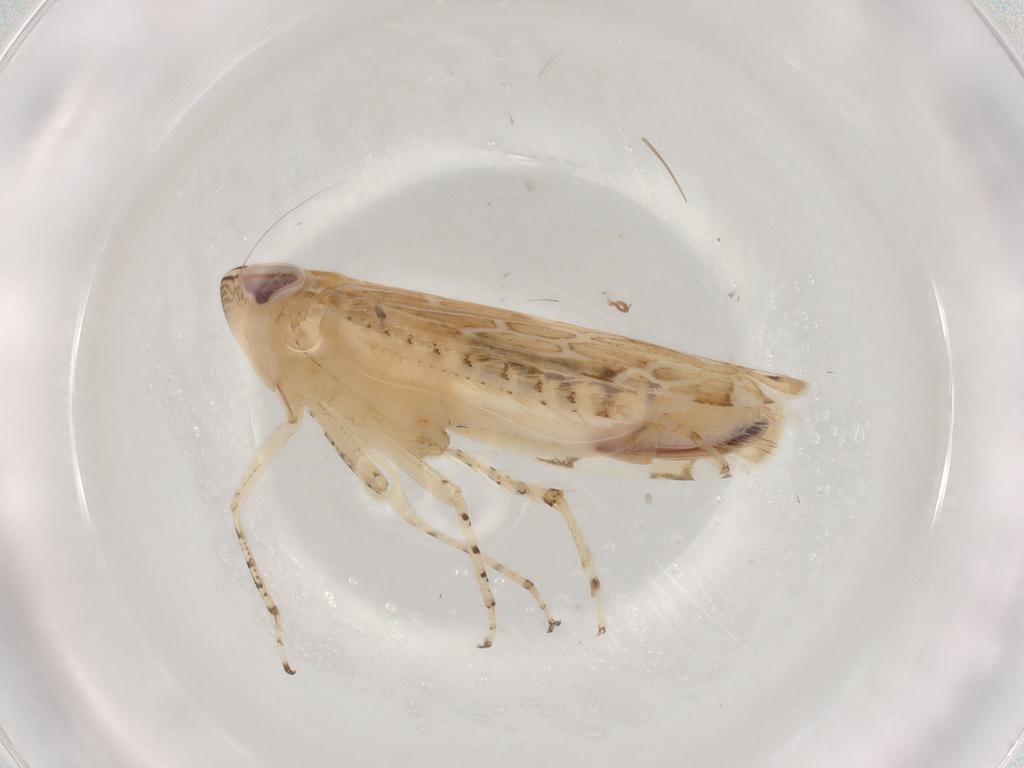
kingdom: Animalia
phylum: Arthropoda
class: Insecta
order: Hemiptera
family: Cicadellidae
